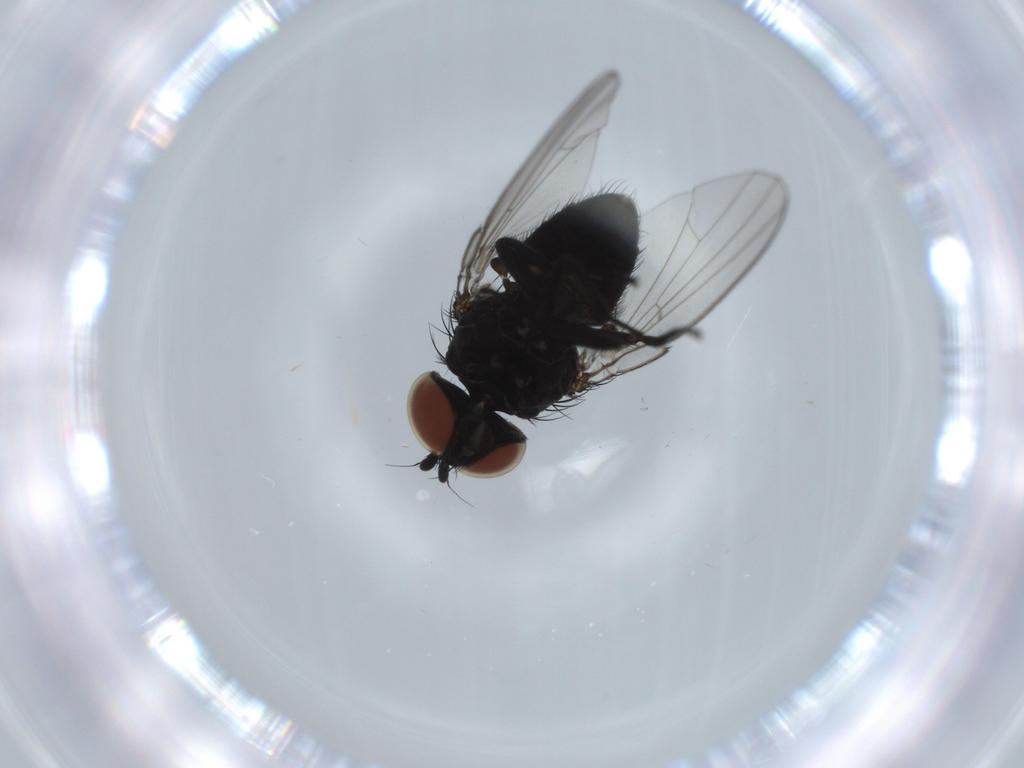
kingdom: Animalia
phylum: Arthropoda
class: Insecta
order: Diptera
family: Milichiidae
